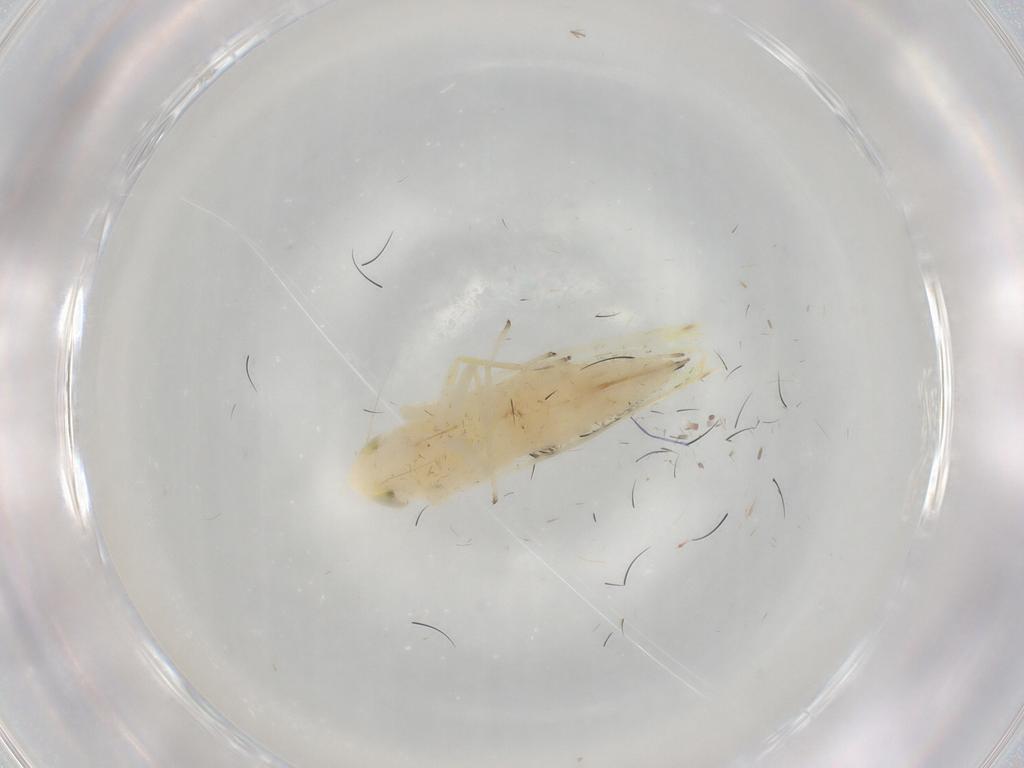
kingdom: Animalia
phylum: Arthropoda
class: Insecta
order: Hemiptera
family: Cicadellidae
